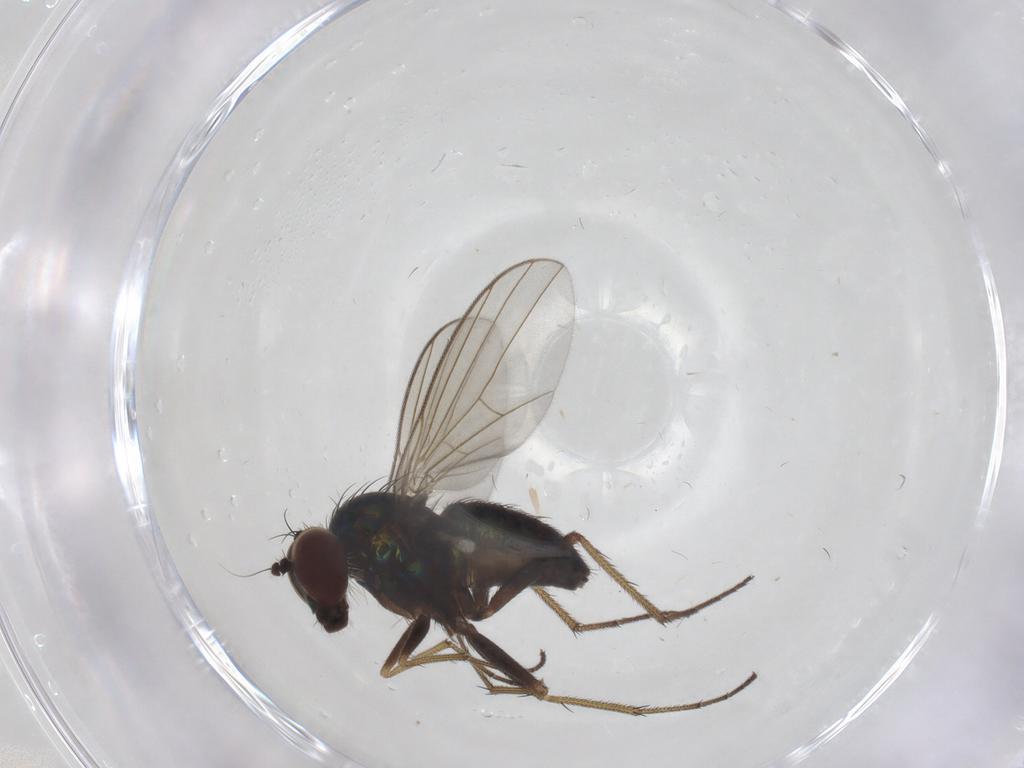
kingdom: Animalia
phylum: Arthropoda
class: Insecta
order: Diptera
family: Dolichopodidae
